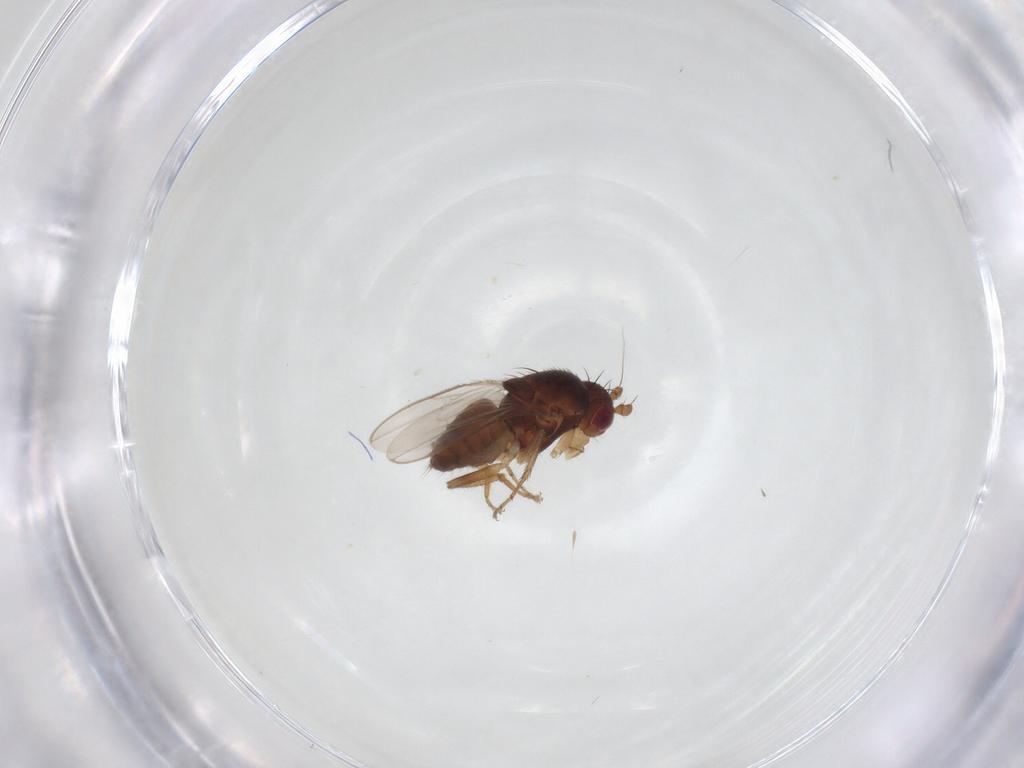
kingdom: Animalia
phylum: Arthropoda
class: Insecta
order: Diptera
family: Sphaeroceridae
